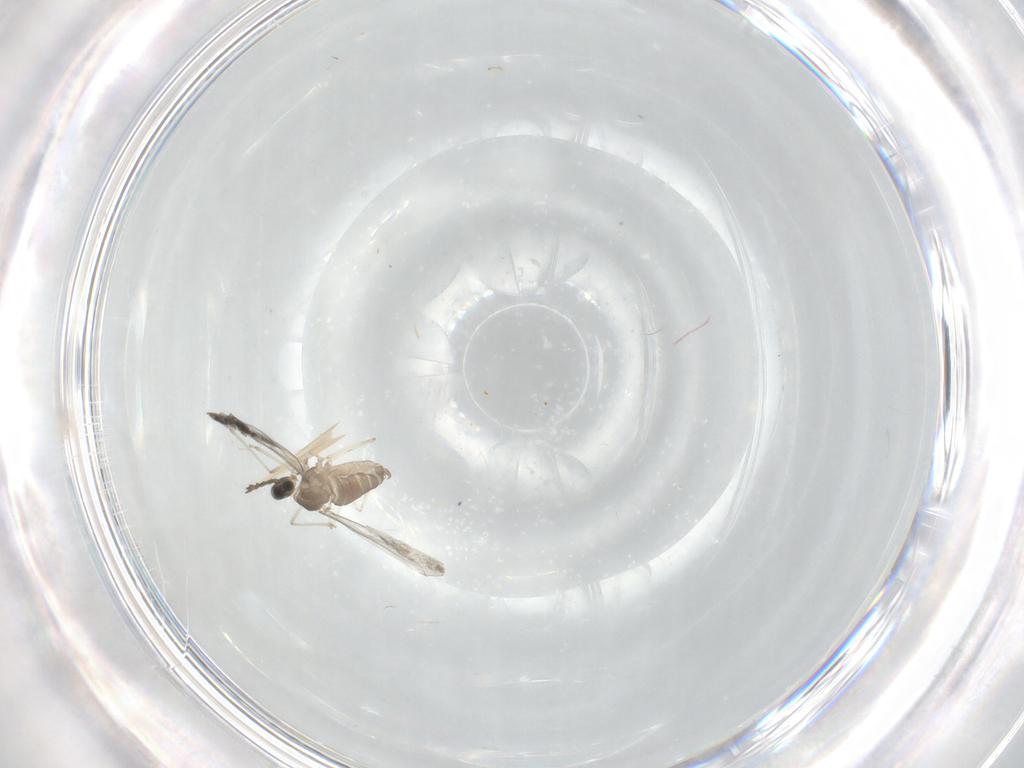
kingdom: Animalia
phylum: Arthropoda
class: Insecta
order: Diptera
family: Cecidomyiidae
